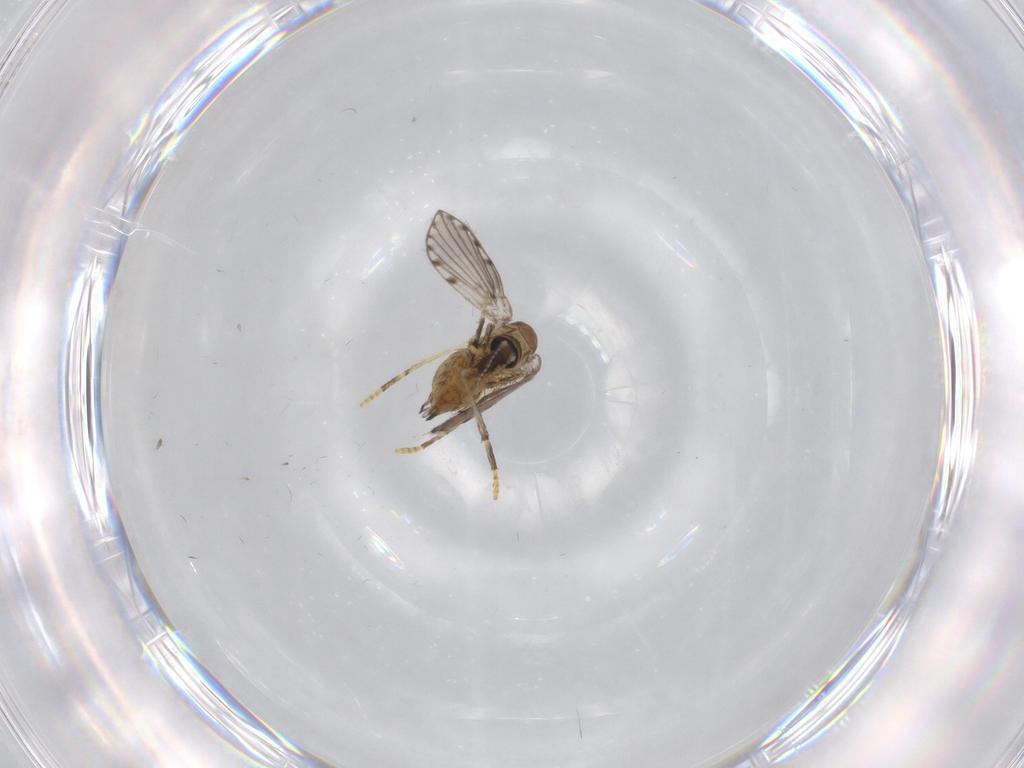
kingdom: Animalia
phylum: Arthropoda
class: Insecta
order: Diptera
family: Psychodidae
